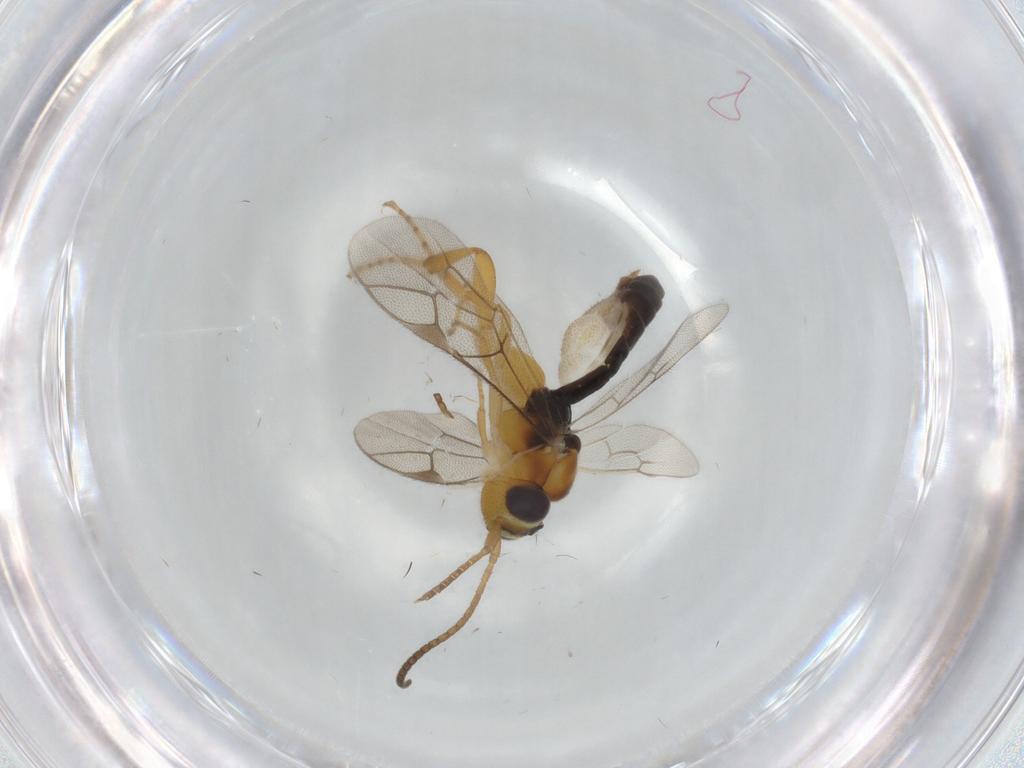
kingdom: Animalia
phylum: Arthropoda
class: Insecta
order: Hymenoptera
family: Ichneumonidae
